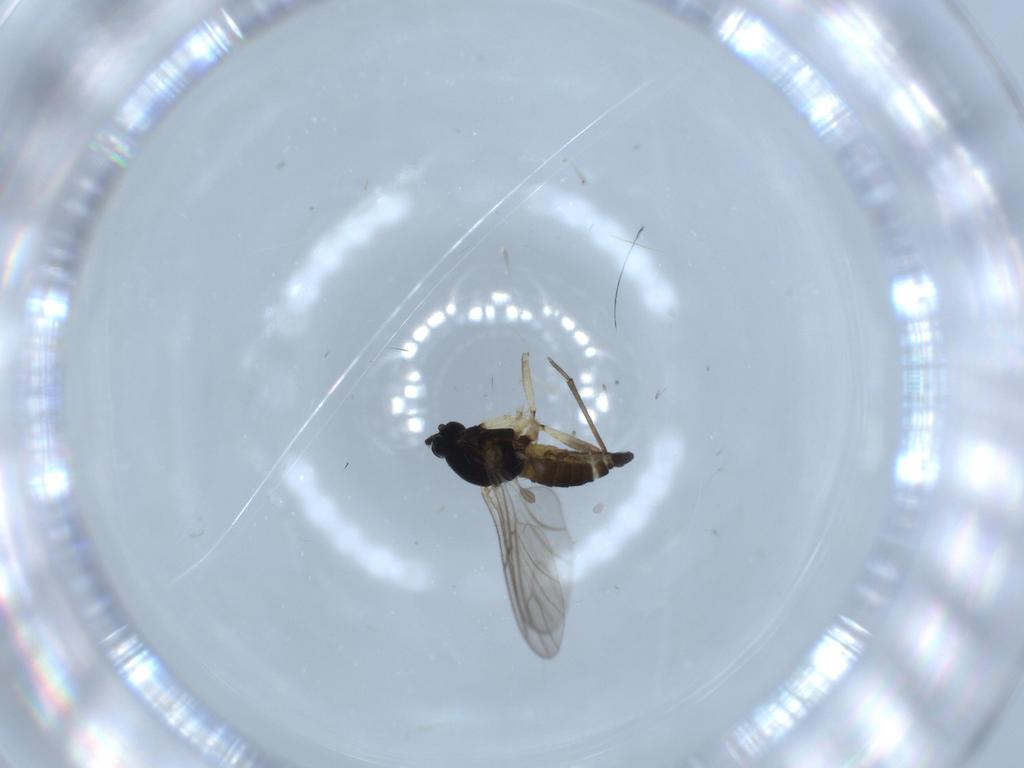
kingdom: Animalia
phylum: Arthropoda
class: Insecta
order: Diptera
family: Sciaridae
